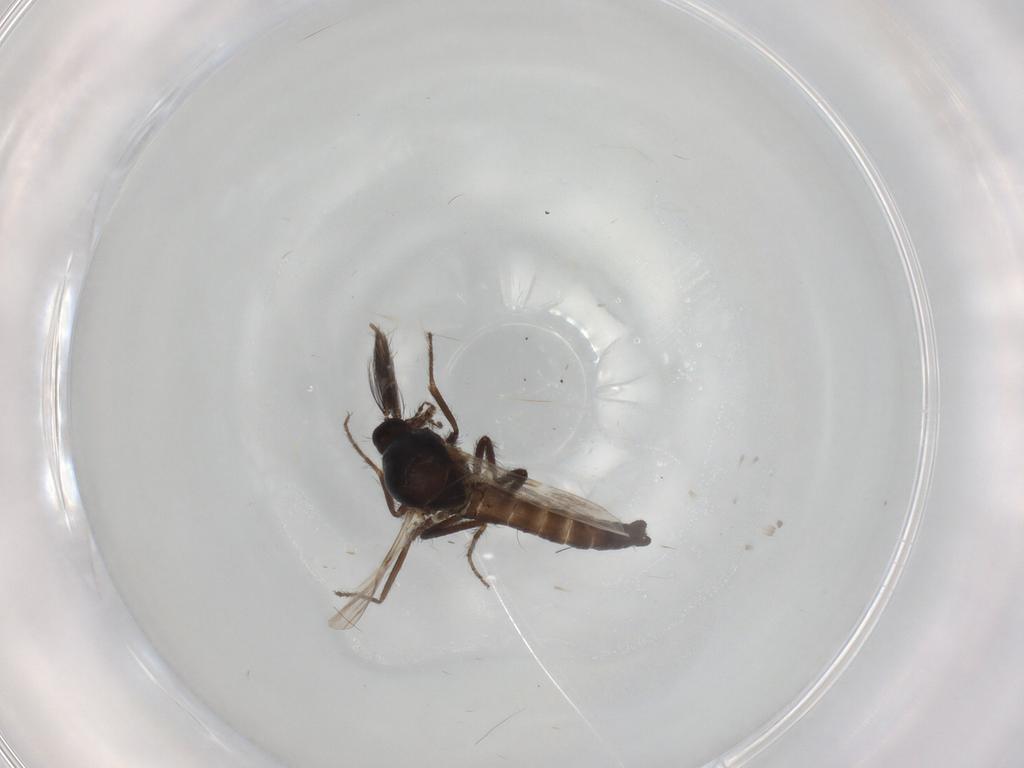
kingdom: Animalia
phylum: Arthropoda
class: Insecta
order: Diptera
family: Ceratopogonidae
